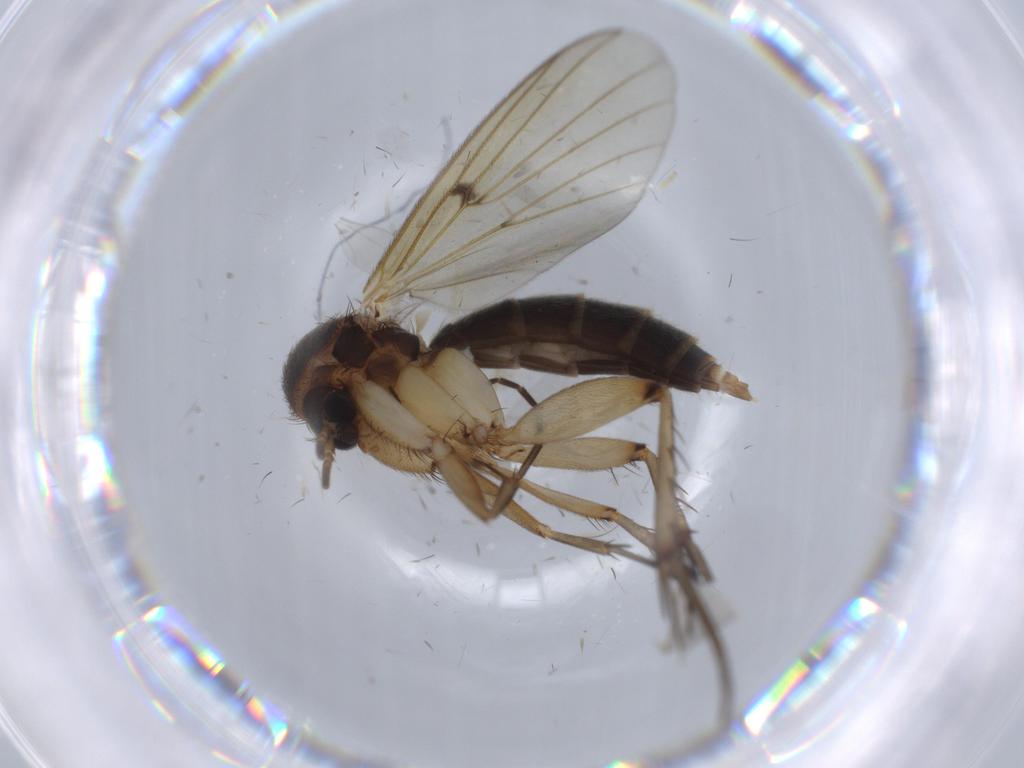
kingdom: Animalia
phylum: Arthropoda
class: Insecta
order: Diptera
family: Mycetophilidae
